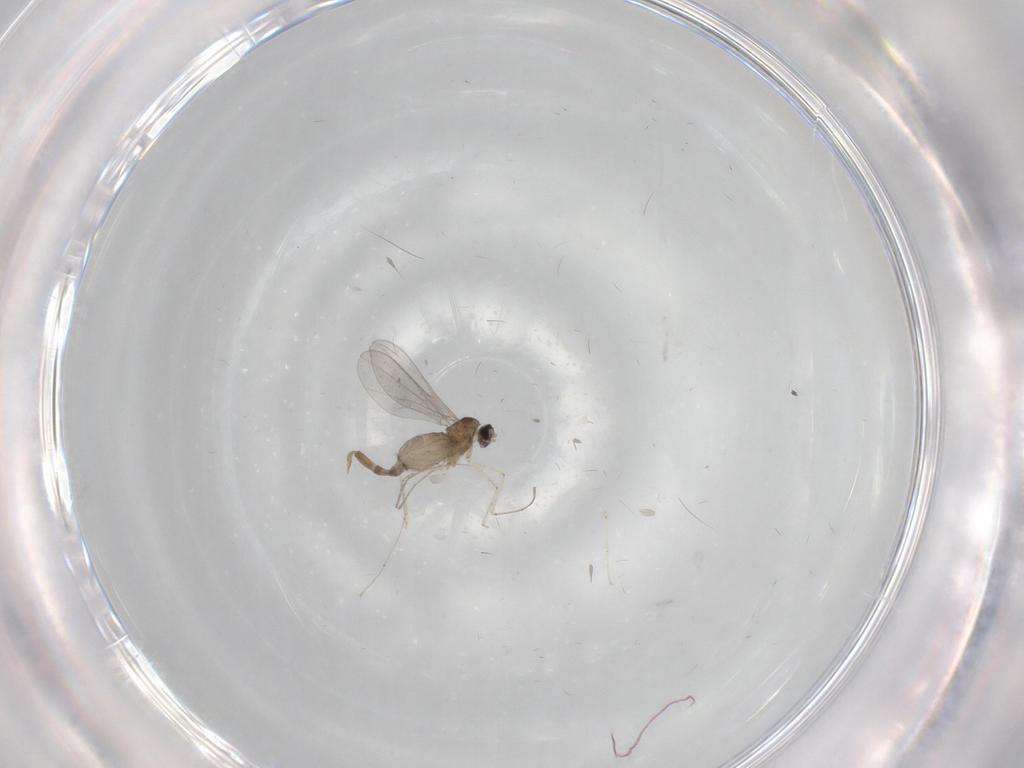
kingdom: Animalia
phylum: Arthropoda
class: Insecta
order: Diptera
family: Cecidomyiidae
